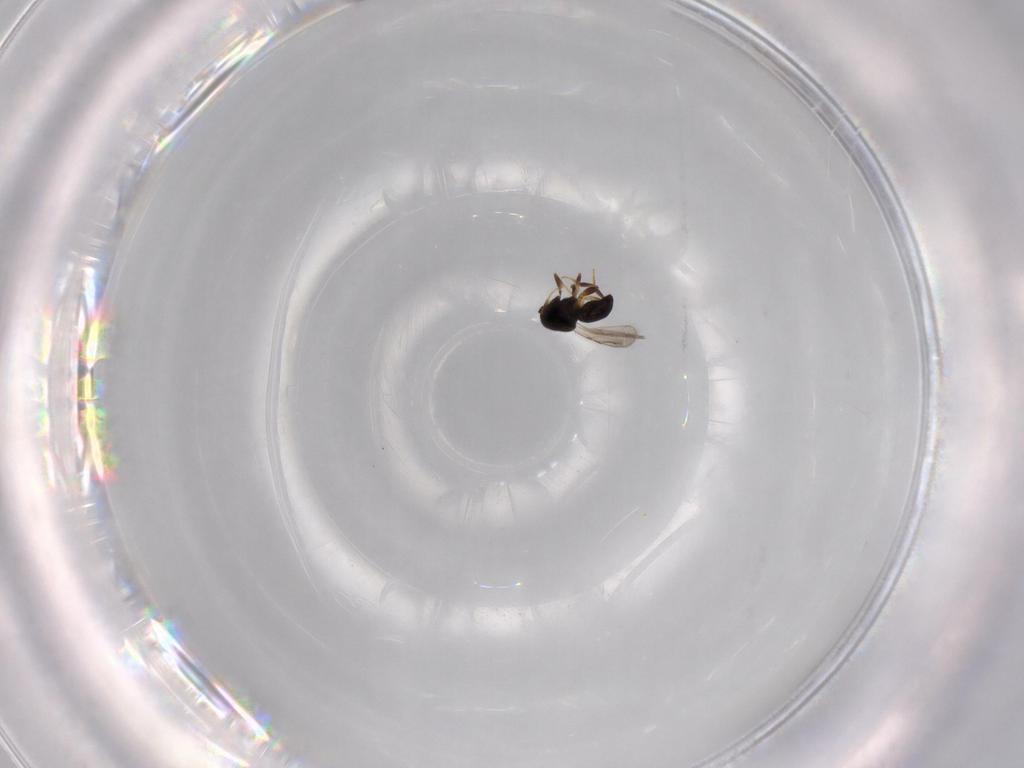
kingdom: Animalia
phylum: Arthropoda
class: Insecta
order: Hymenoptera
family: Ceraphronidae
